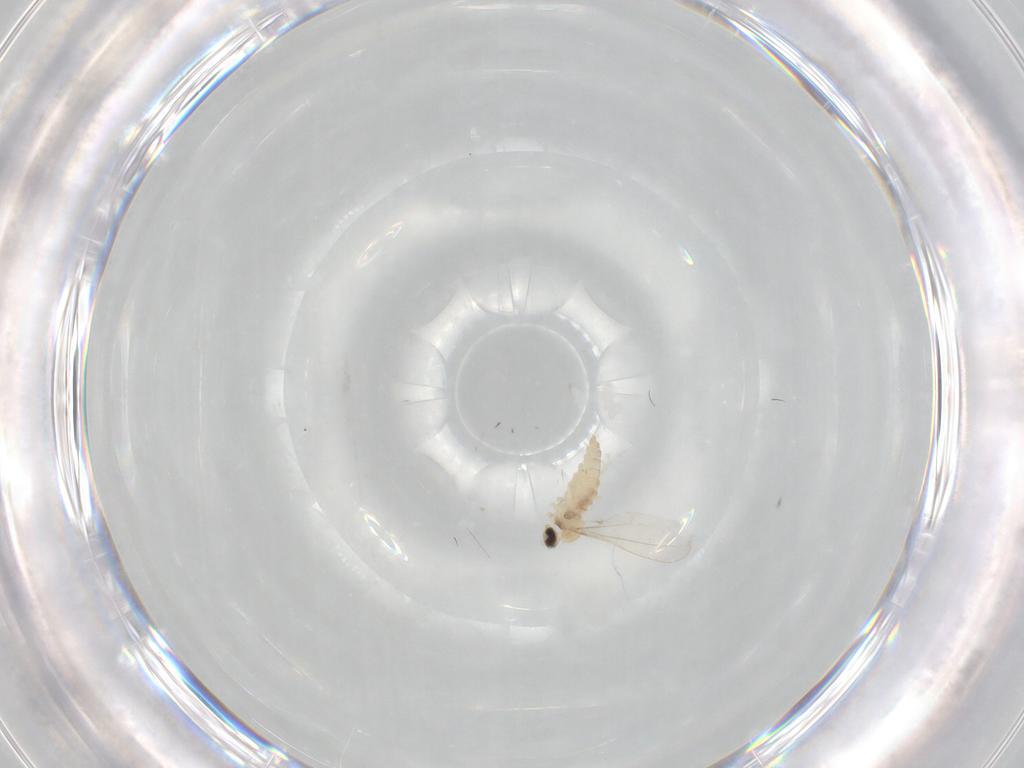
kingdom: Animalia
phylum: Arthropoda
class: Insecta
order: Diptera
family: Cecidomyiidae
